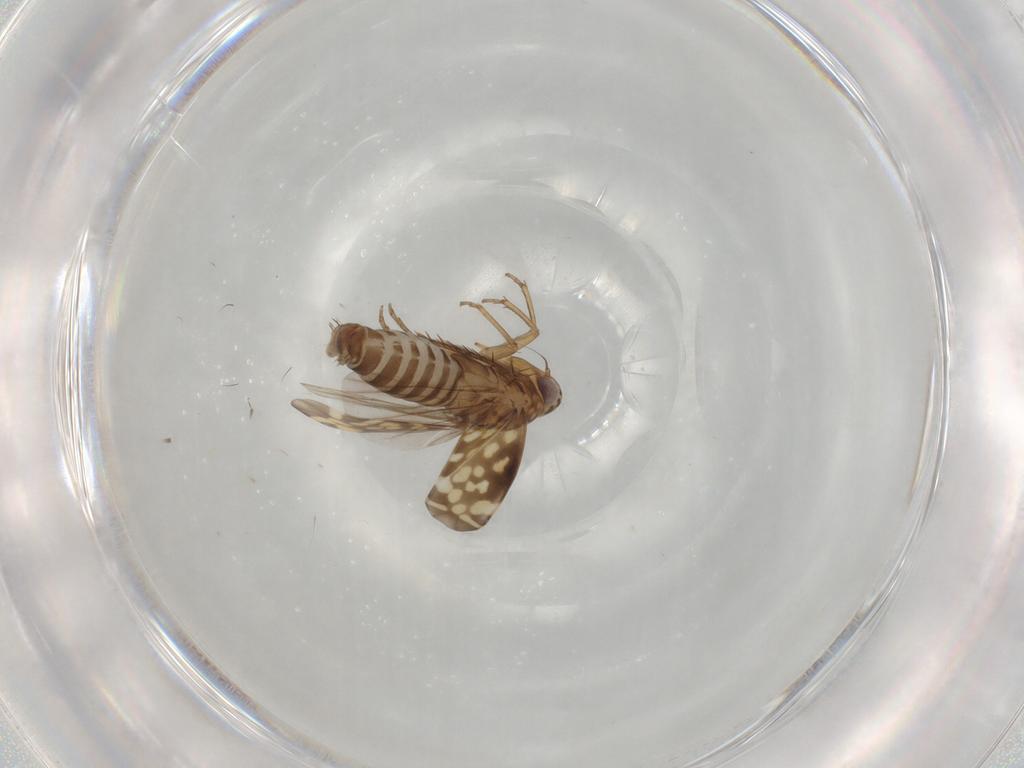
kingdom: Animalia
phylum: Arthropoda
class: Insecta
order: Hemiptera
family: Cicadellidae
